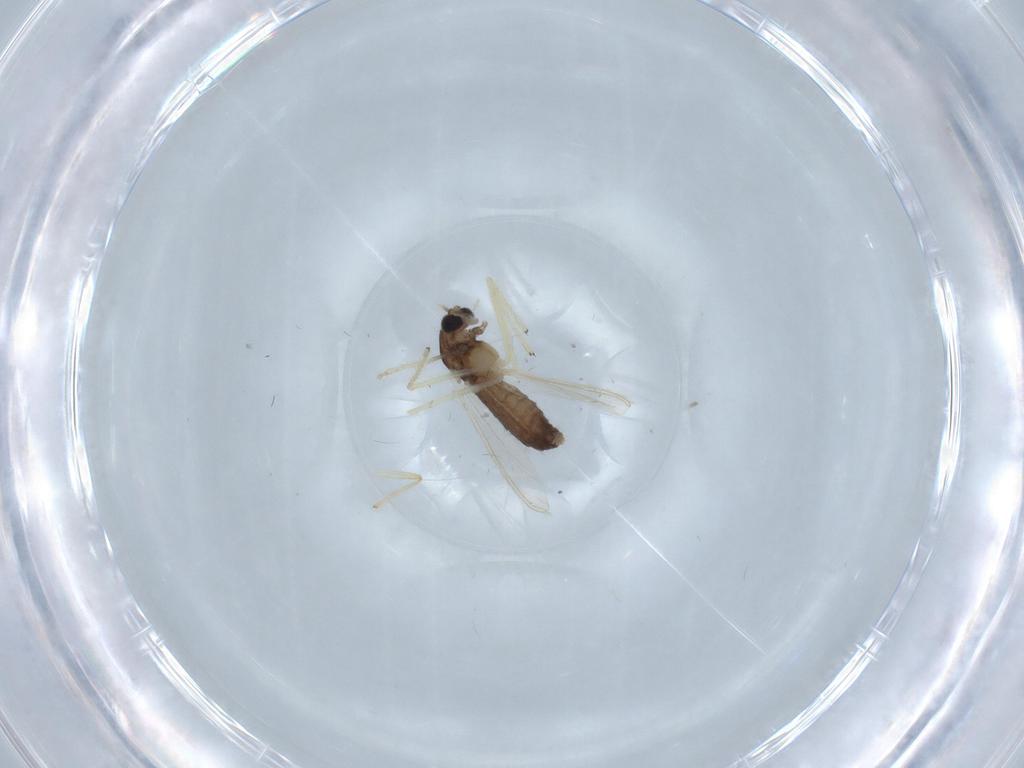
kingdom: Animalia
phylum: Arthropoda
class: Insecta
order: Diptera
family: Chironomidae
